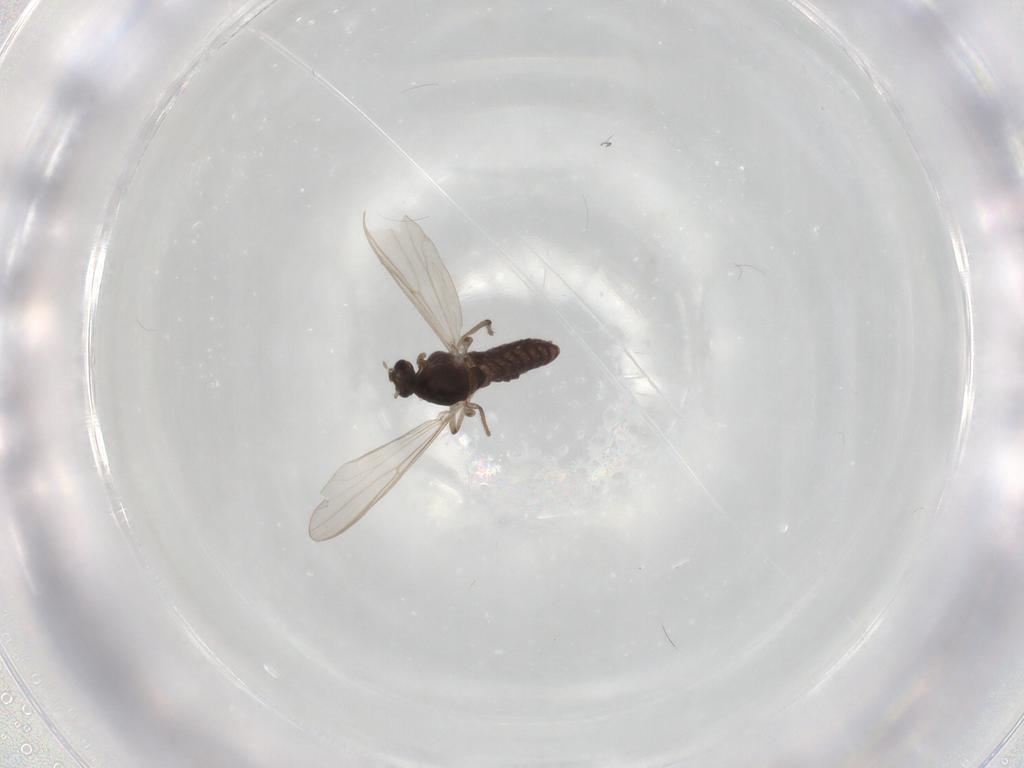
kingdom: Animalia
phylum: Arthropoda
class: Insecta
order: Diptera
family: Chironomidae
